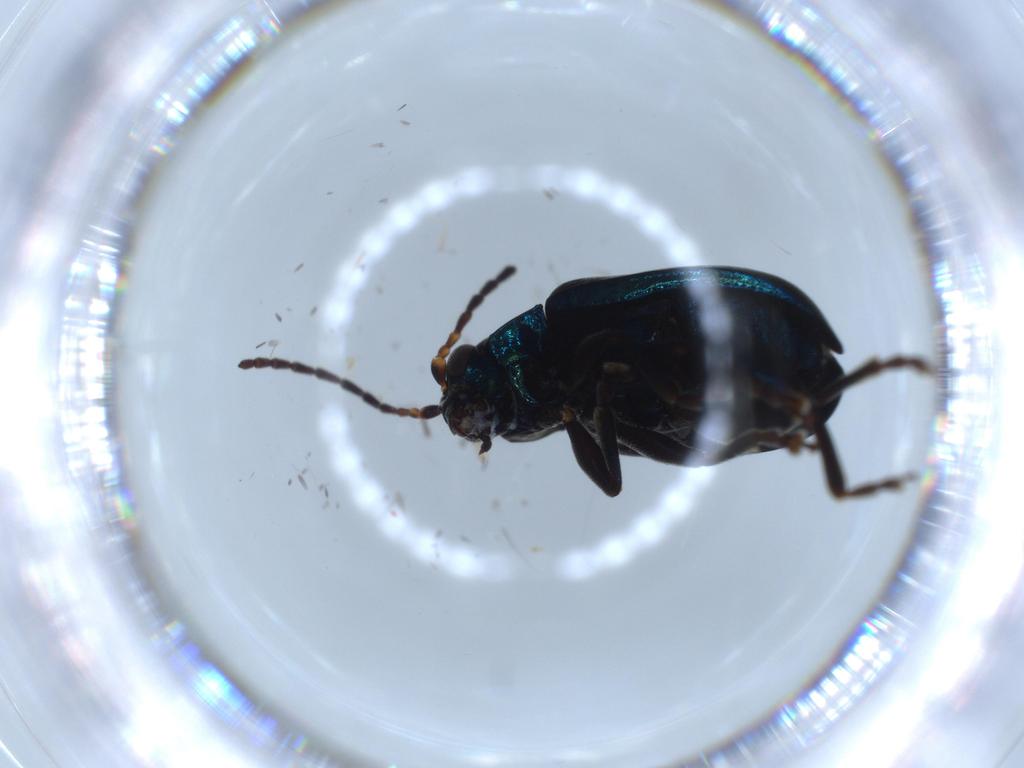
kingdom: Animalia
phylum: Arthropoda
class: Insecta
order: Coleoptera
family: Chrysomelidae
